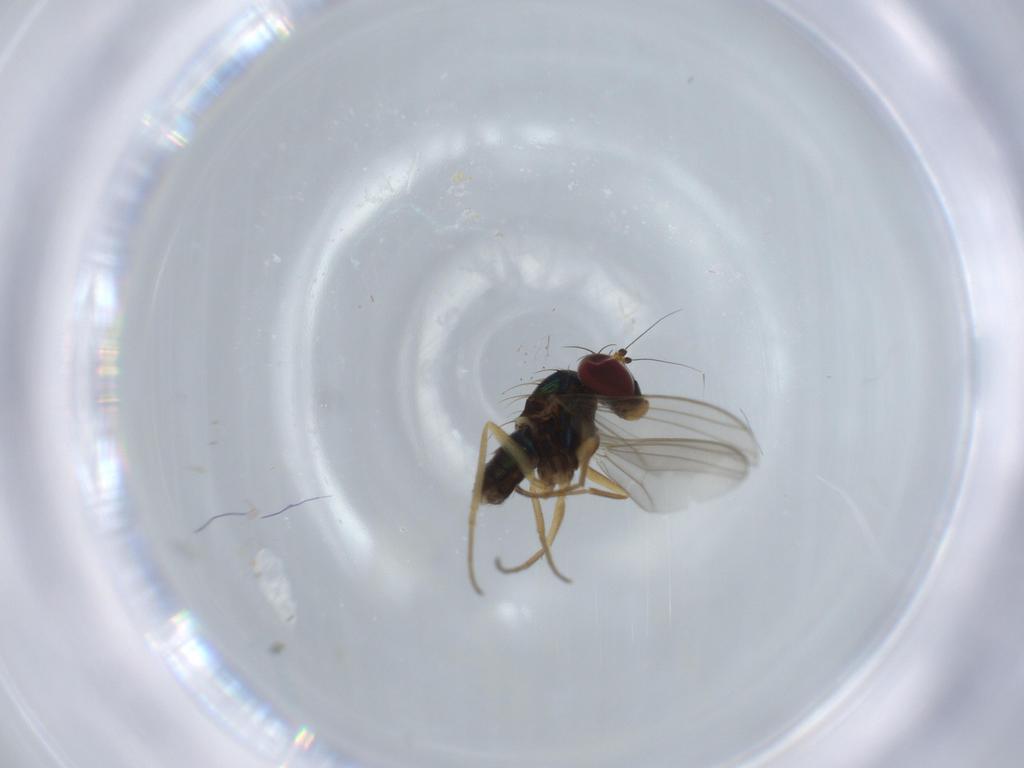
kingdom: Animalia
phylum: Arthropoda
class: Insecta
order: Diptera
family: Dolichopodidae
